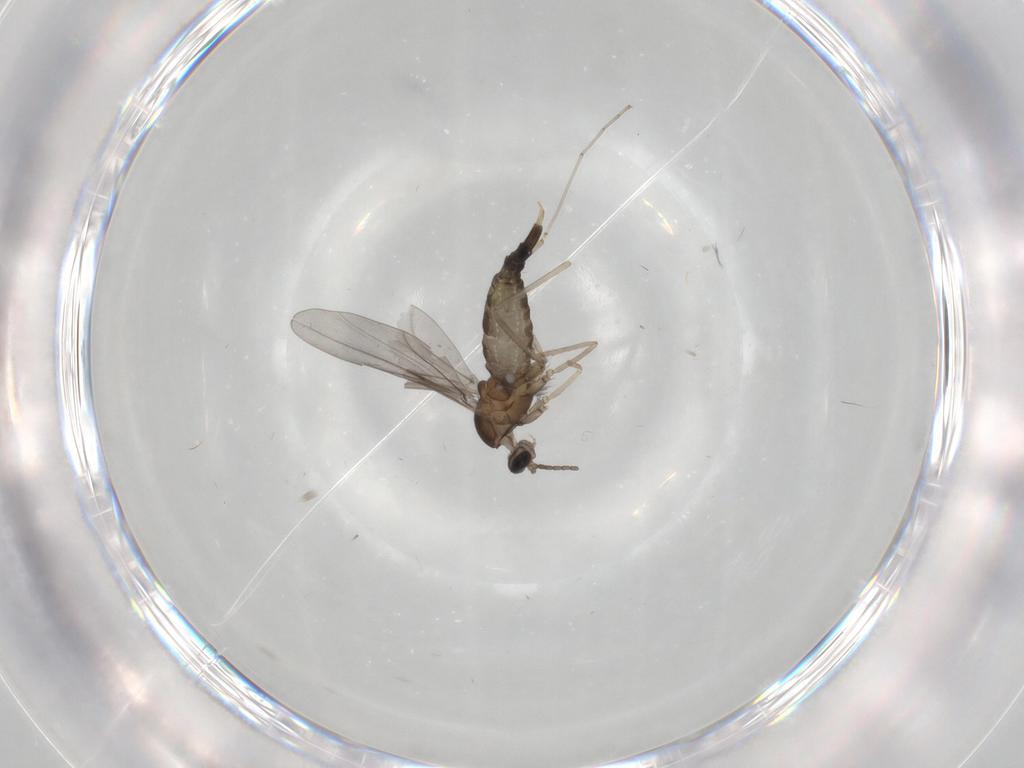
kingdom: Animalia
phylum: Arthropoda
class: Insecta
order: Diptera
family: Cecidomyiidae
